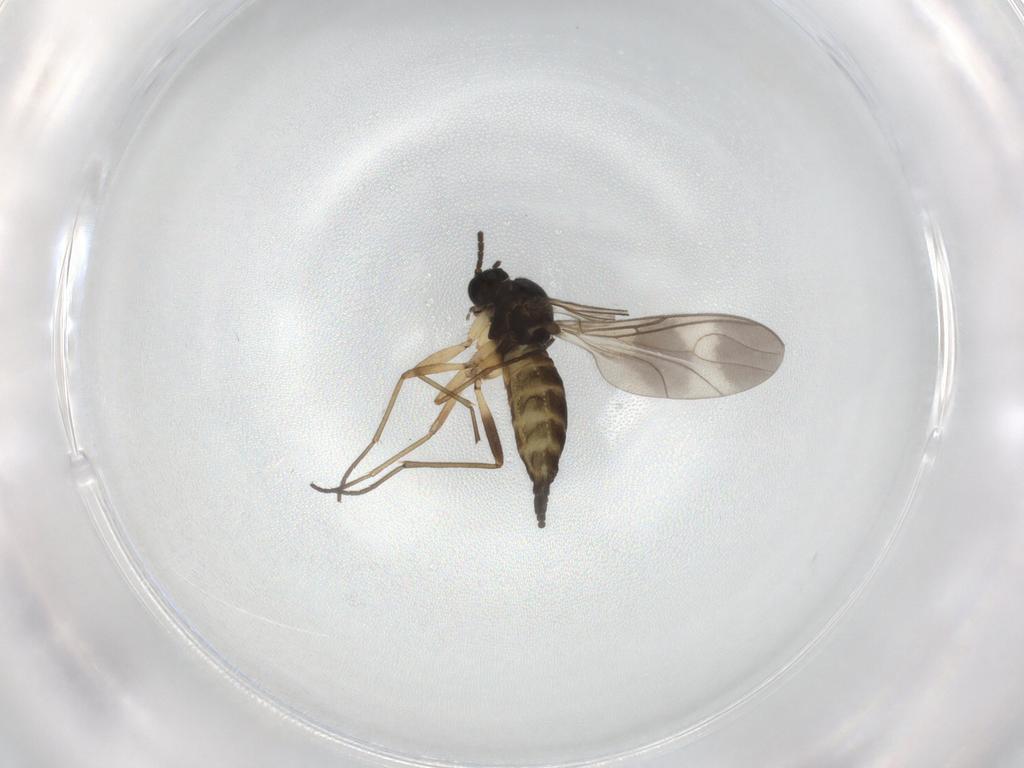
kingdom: Animalia
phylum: Arthropoda
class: Insecta
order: Diptera
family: Sciaridae
